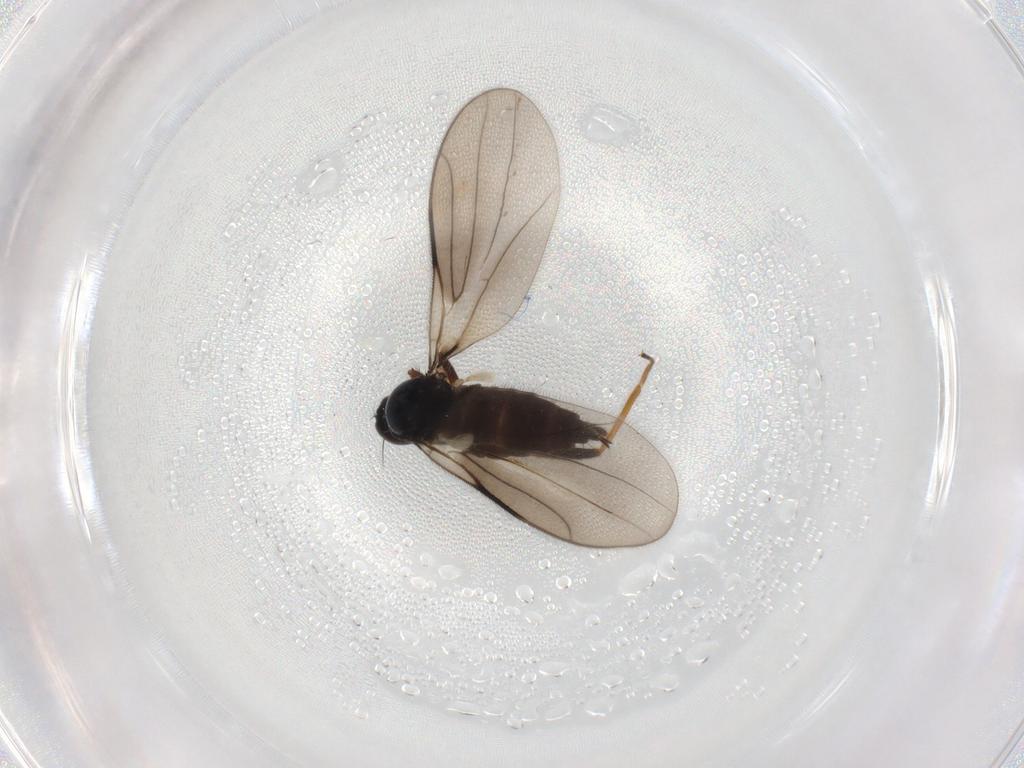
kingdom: Animalia
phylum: Arthropoda
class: Insecta
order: Diptera
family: Hybotidae
